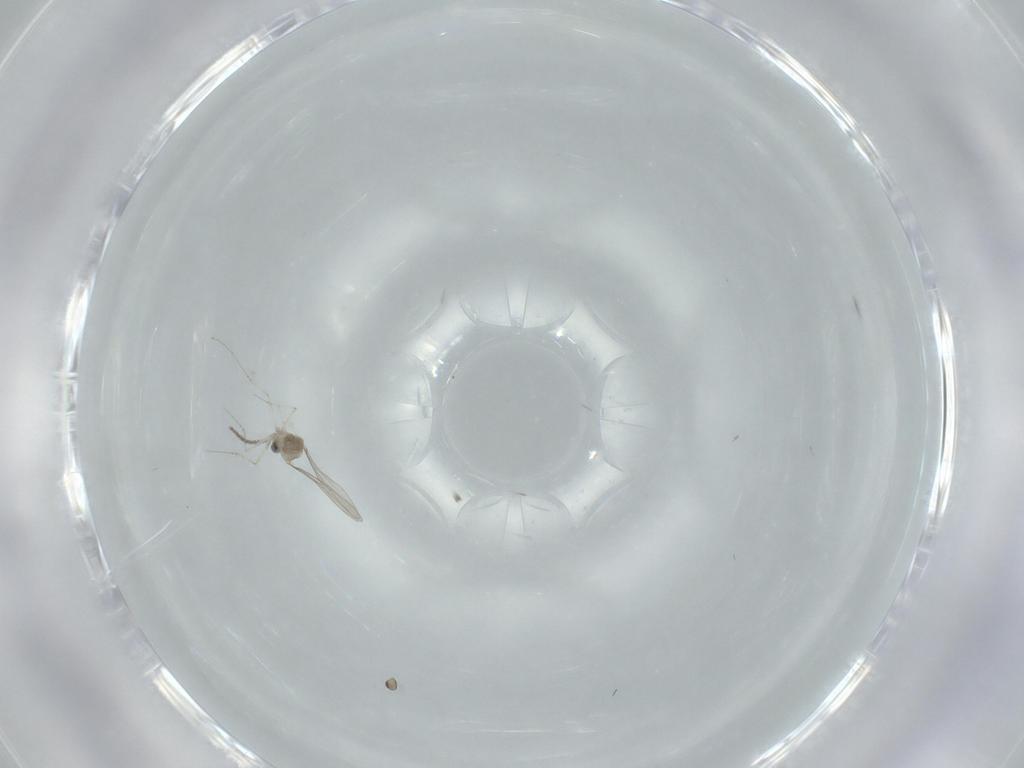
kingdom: Animalia
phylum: Arthropoda
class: Insecta
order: Diptera
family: Cecidomyiidae
